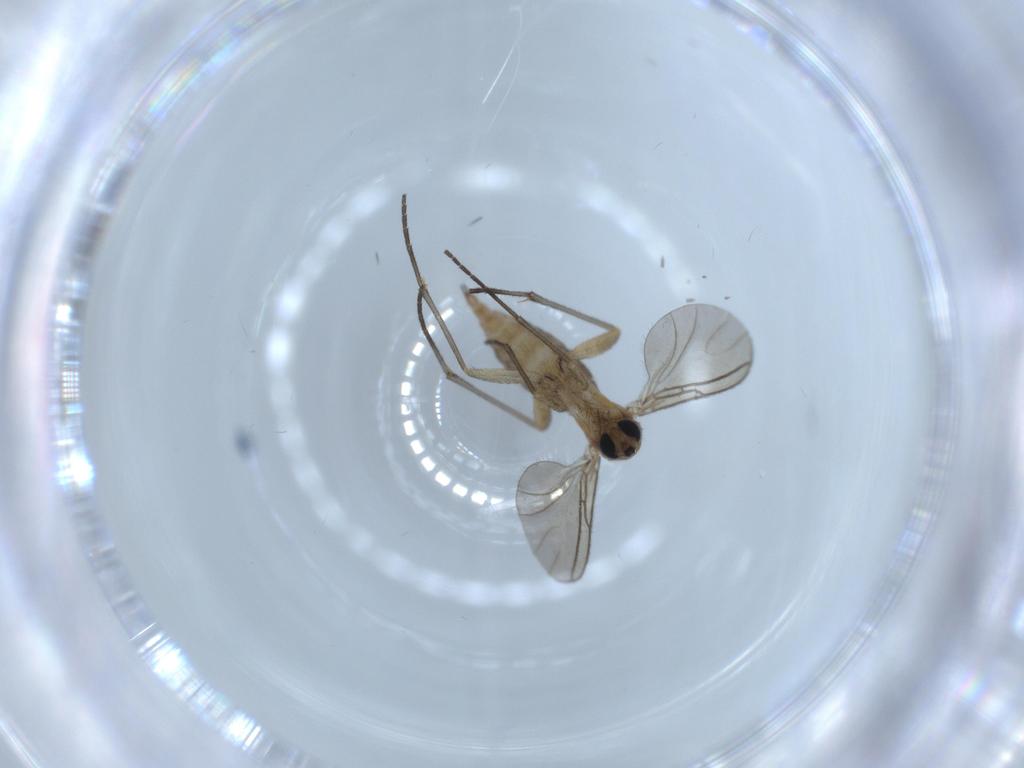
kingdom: Animalia
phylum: Arthropoda
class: Insecta
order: Diptera
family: Sciaridae
